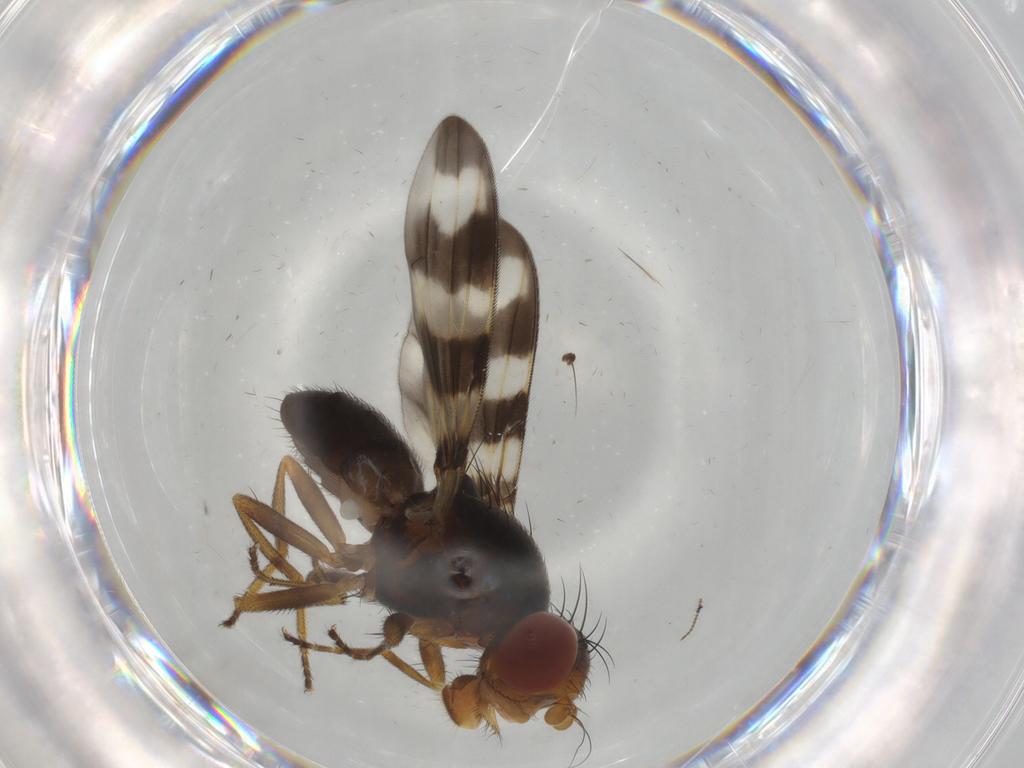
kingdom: Animalia
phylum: Arthropoda
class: Insecta
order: Diptera
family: Ulidiidae
